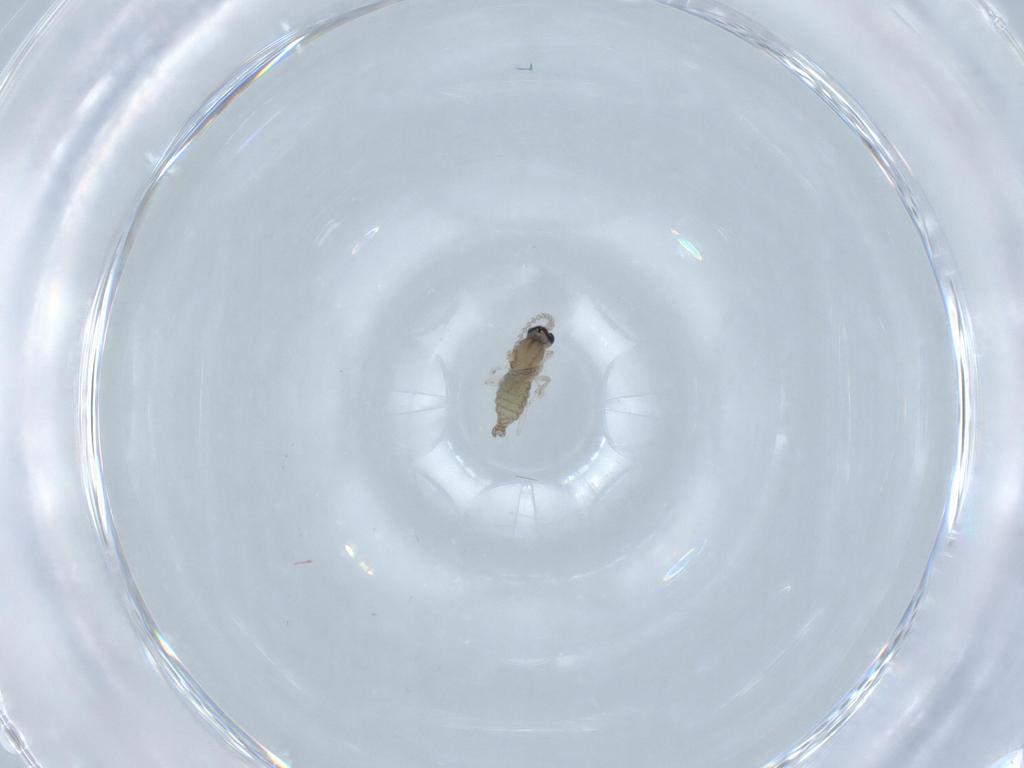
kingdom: Animalia
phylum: Arthropoda
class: Insecta
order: Diptera
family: Cecidomyiidae
